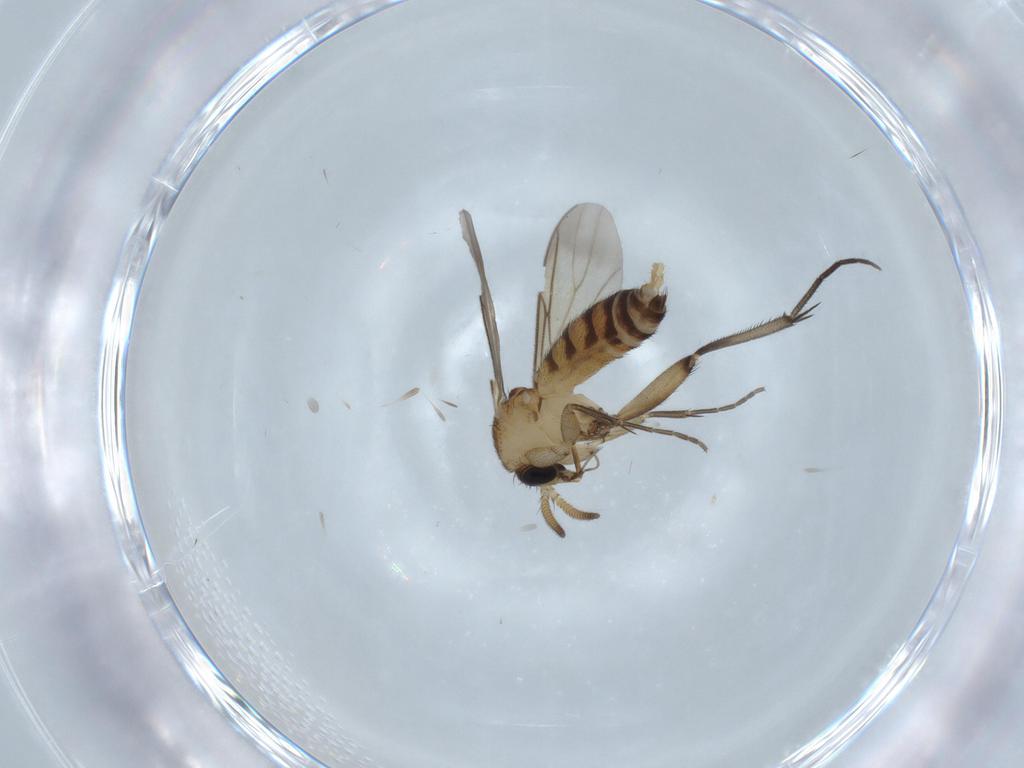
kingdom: Animalia
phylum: Arthropoda
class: Insecta
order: Diptera
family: Mycetophilidae
